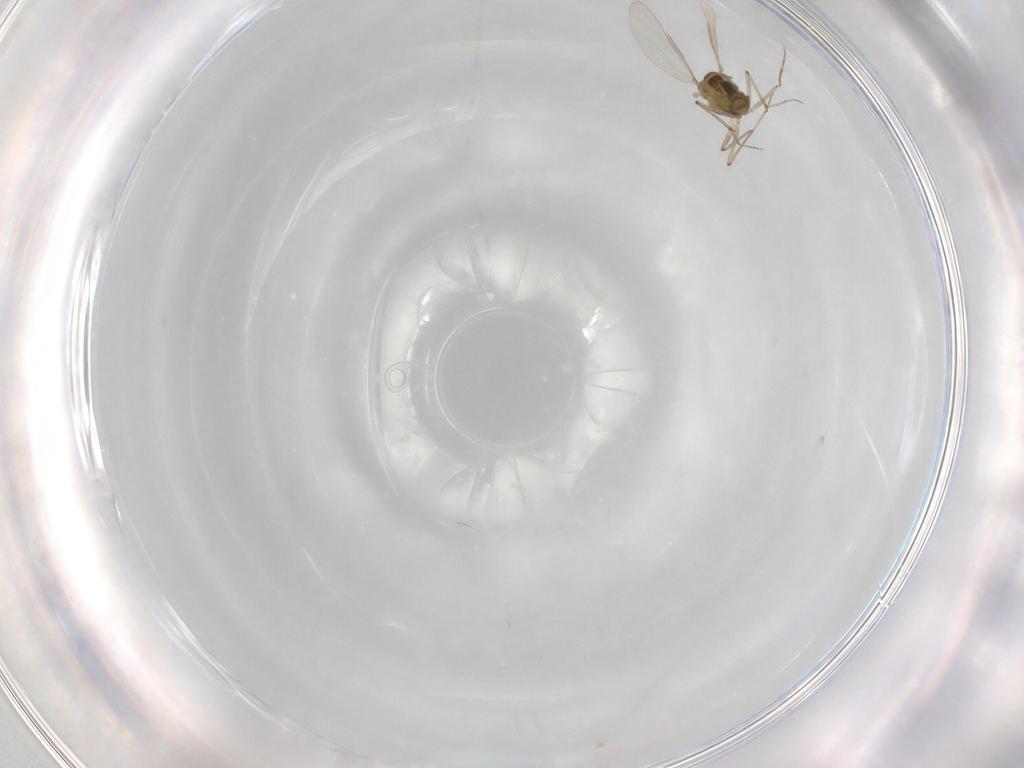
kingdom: Animalia
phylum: Arthropoda
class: Insecta
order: Diptera
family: Chironomidae
